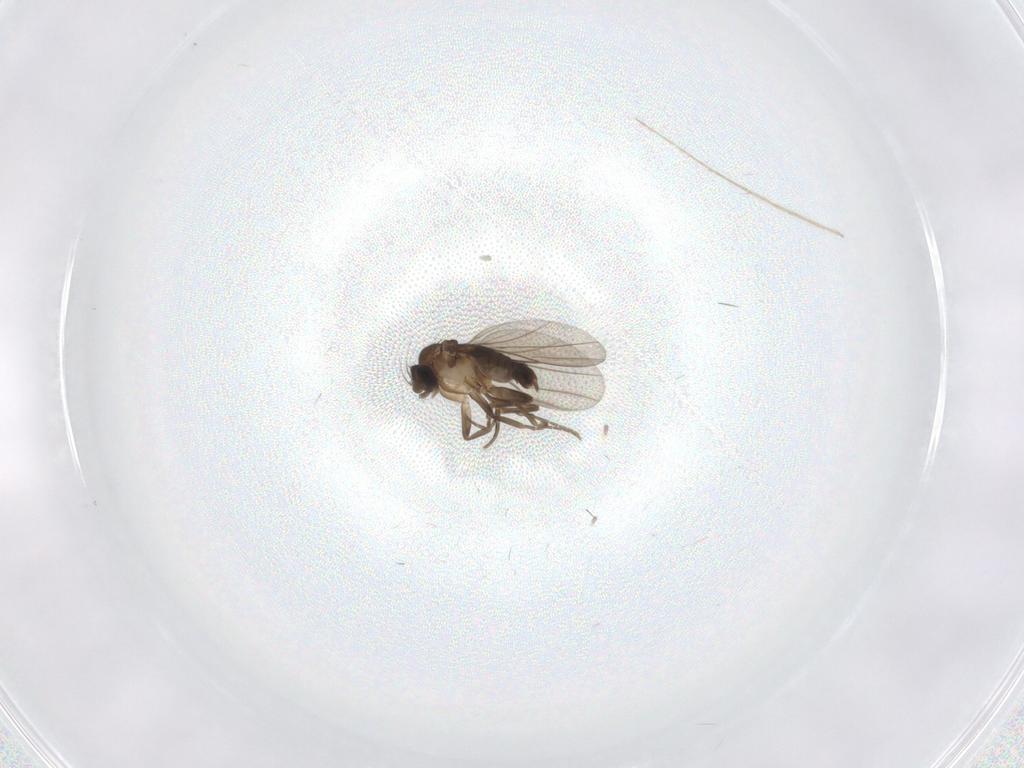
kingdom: Animalia
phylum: Arthropoda
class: Insecta
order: Diptera
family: Phoridae
